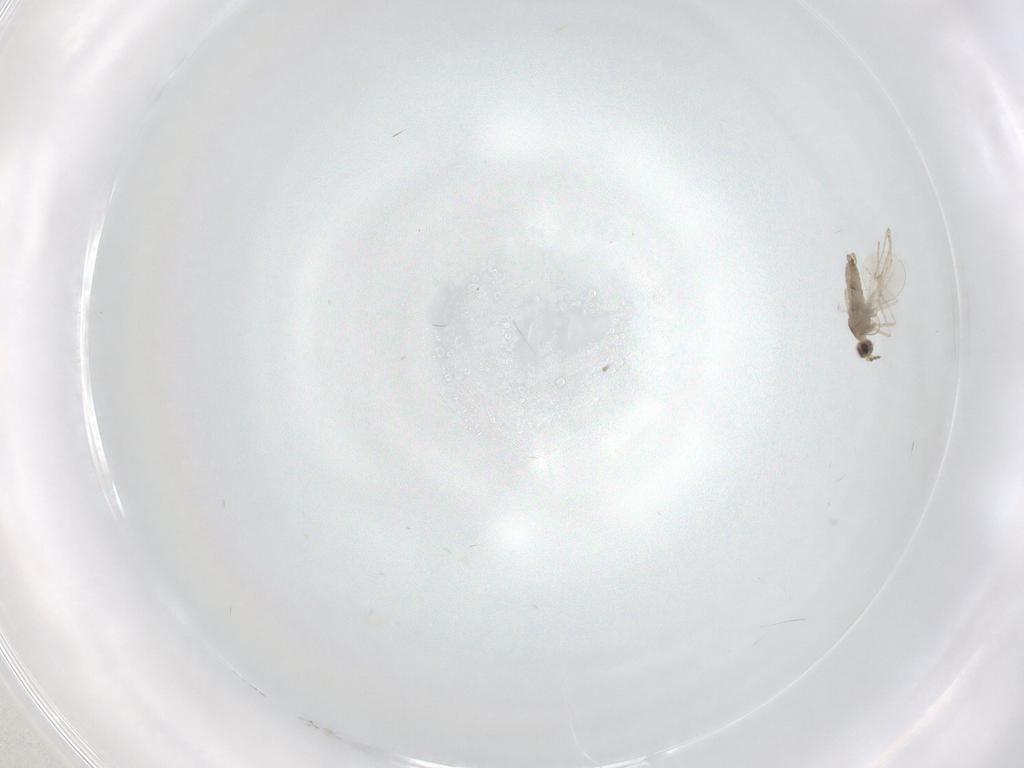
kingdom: Animalia
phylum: Arthropoda
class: Insecta
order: Diptera
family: Cecidomyiidae
